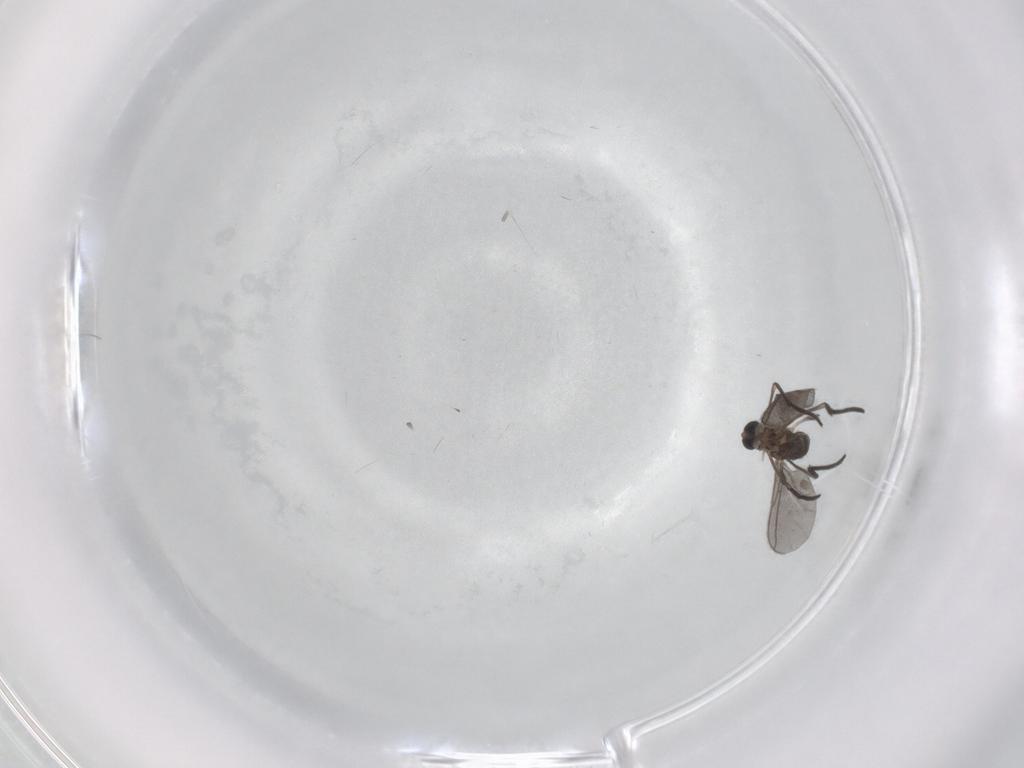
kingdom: Animalia
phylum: Arthropoda
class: Insecta
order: Diptera
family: Sciaridae
